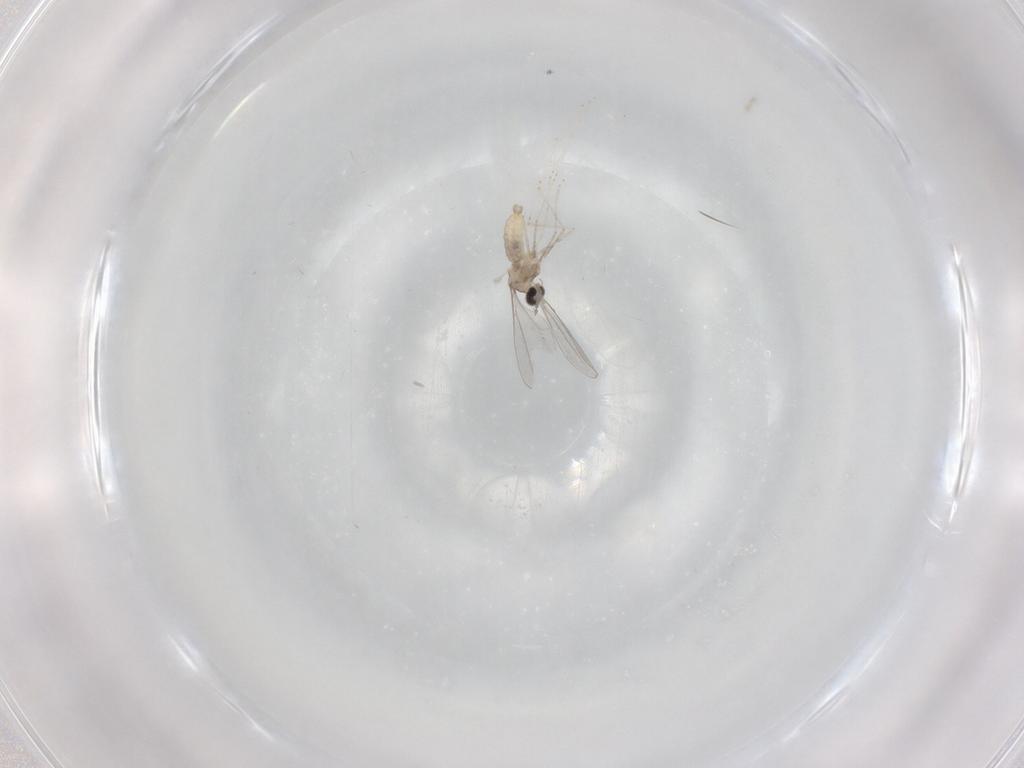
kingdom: Animalia
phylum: Arthropoda
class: Insecta
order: Diptera
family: Cecidomyiidae
